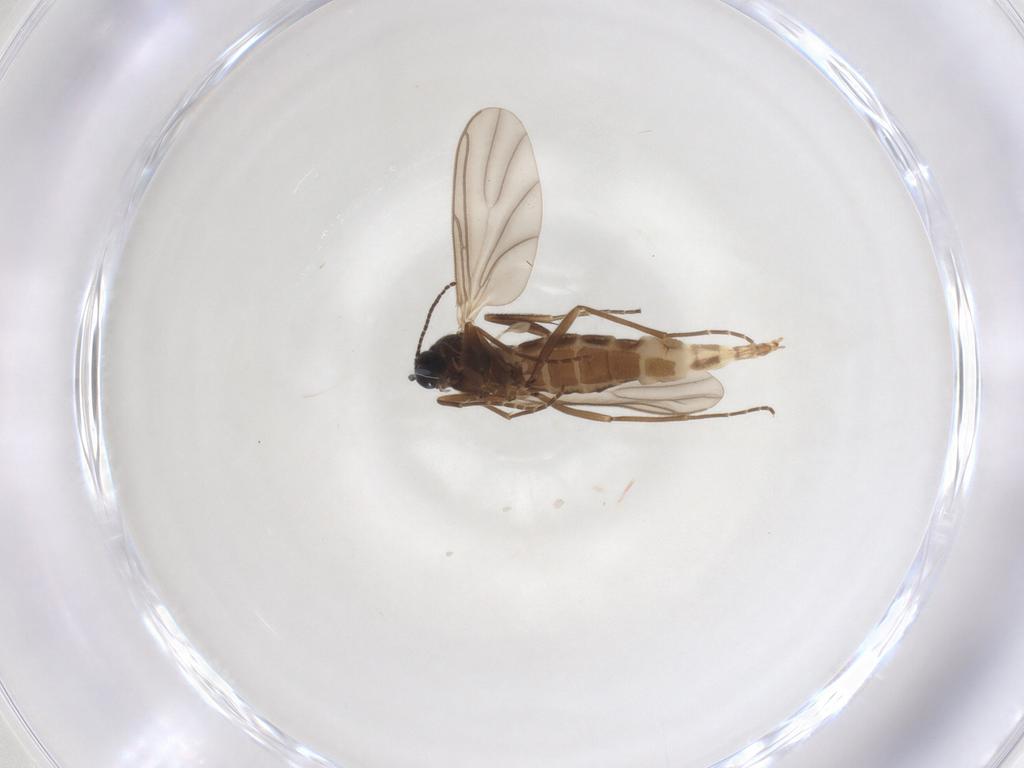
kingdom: Animalia
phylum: Arthropoda
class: Insecta
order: Diptera
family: Sciaridae
